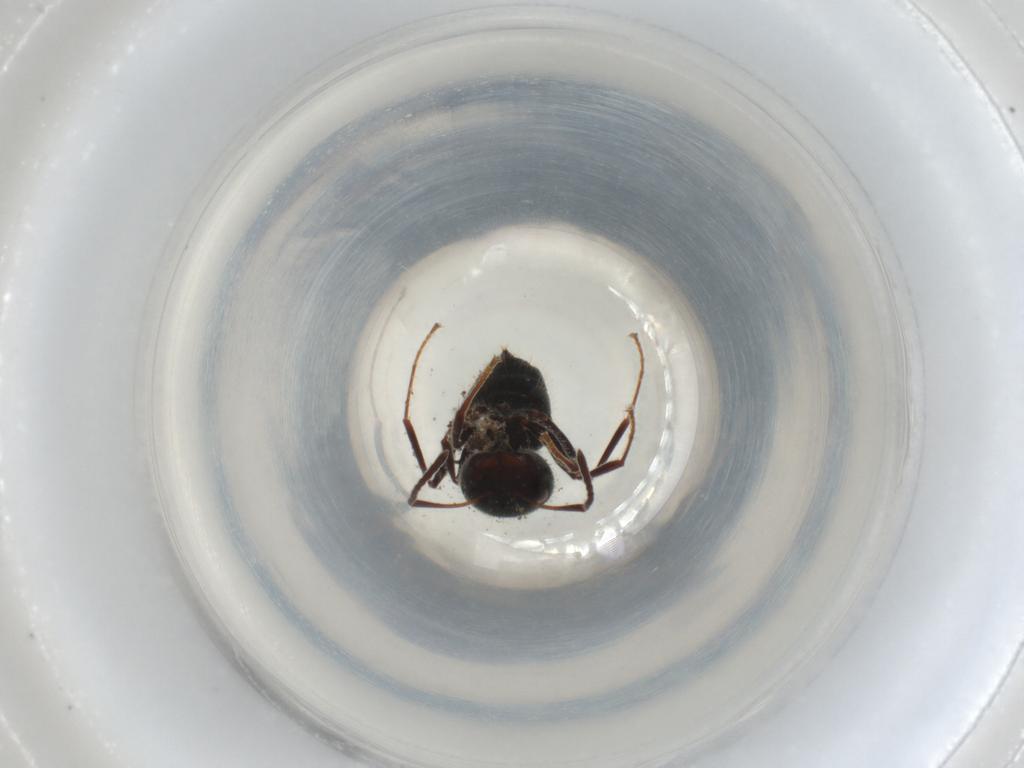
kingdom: Animalia
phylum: Arthropoda
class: Insecta
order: Hymenoptera
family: Formicidae
